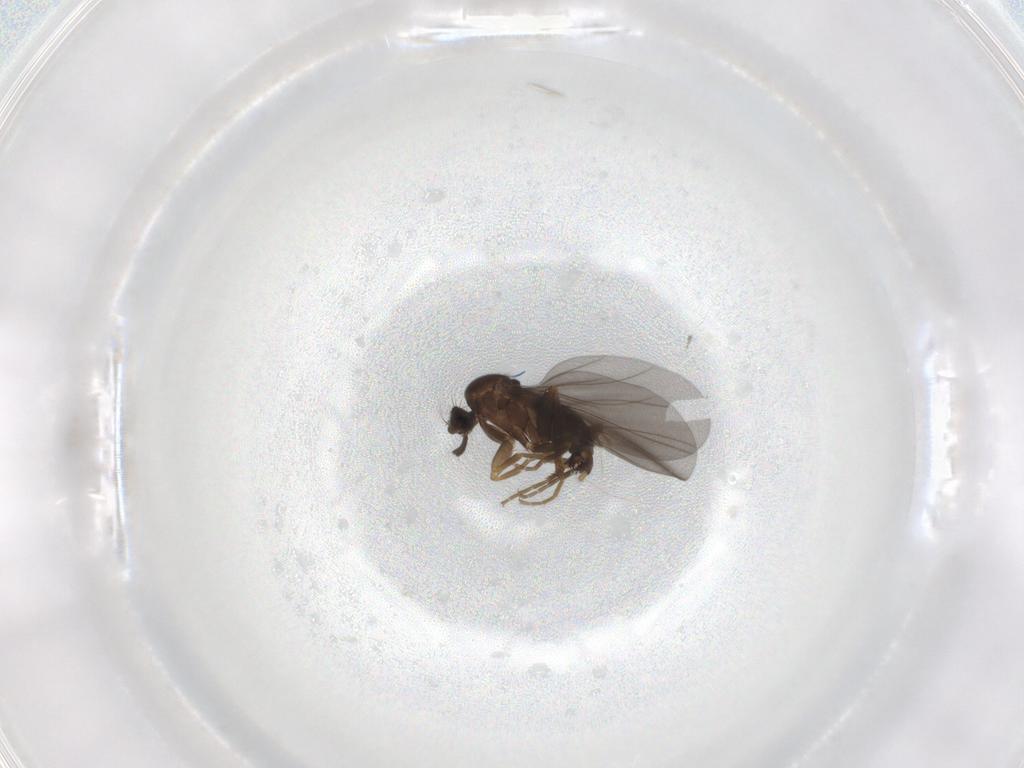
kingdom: Animalia
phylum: Arthropoda
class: Insecta
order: Diptera
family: Phoridae
